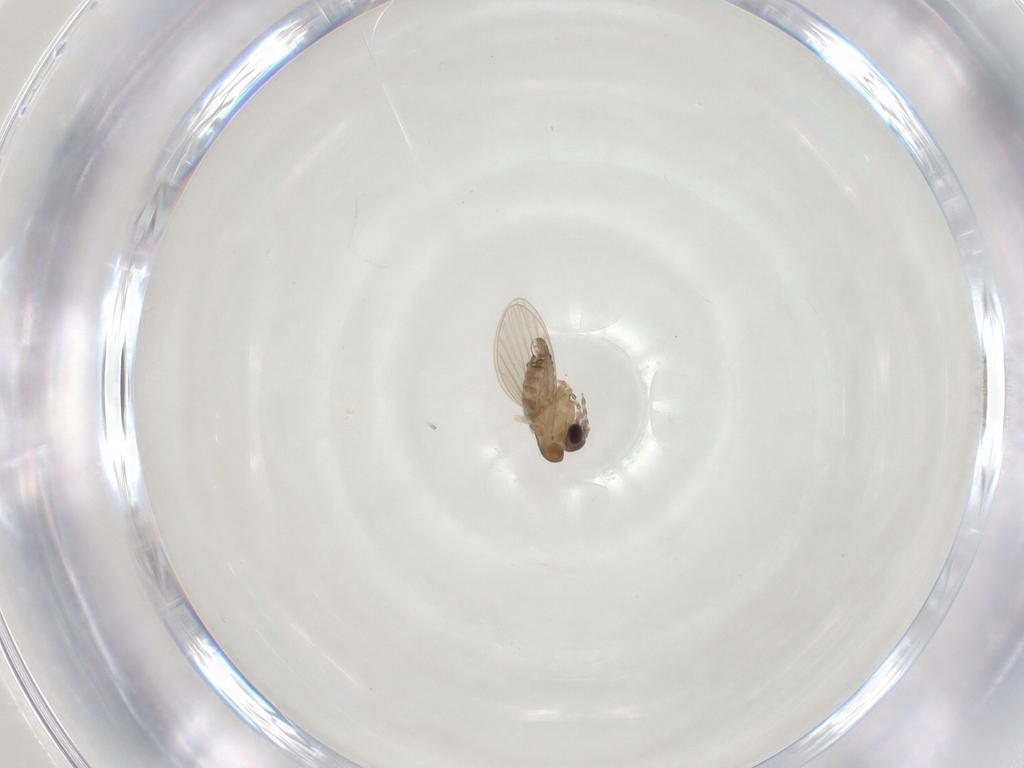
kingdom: Animalia
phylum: Arthropoda
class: Insecta
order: Diptera
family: Cecidomyiidae
